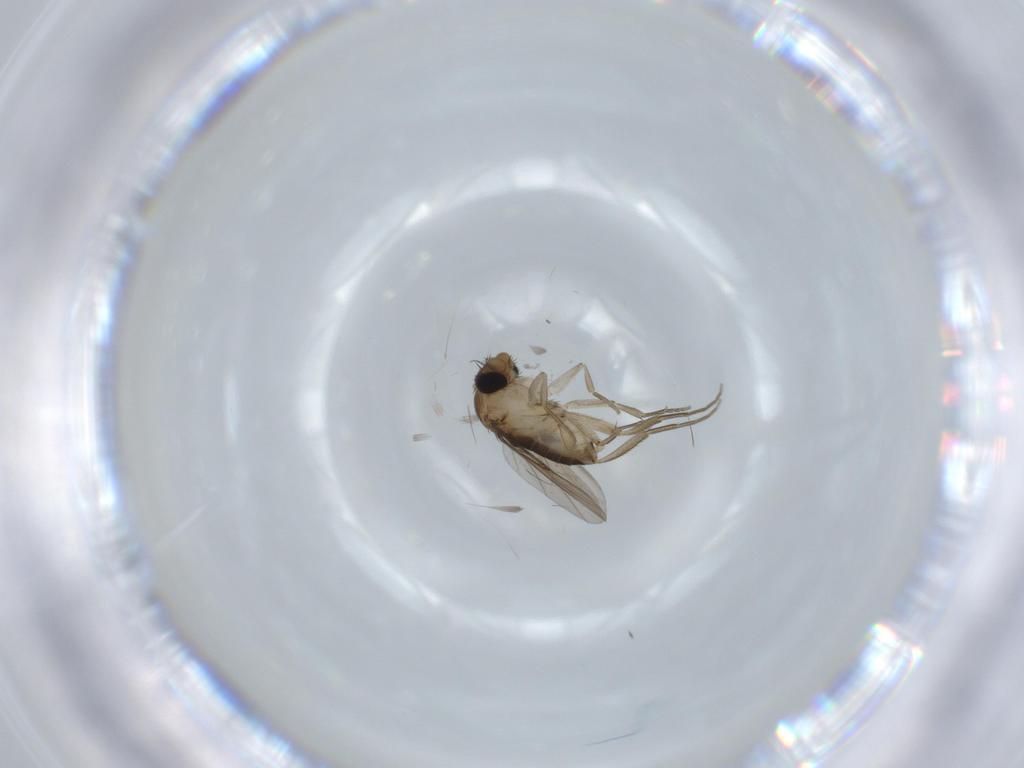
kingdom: Animalia
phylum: Arthropoda
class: Insecta
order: Diptera
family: Phoridae
